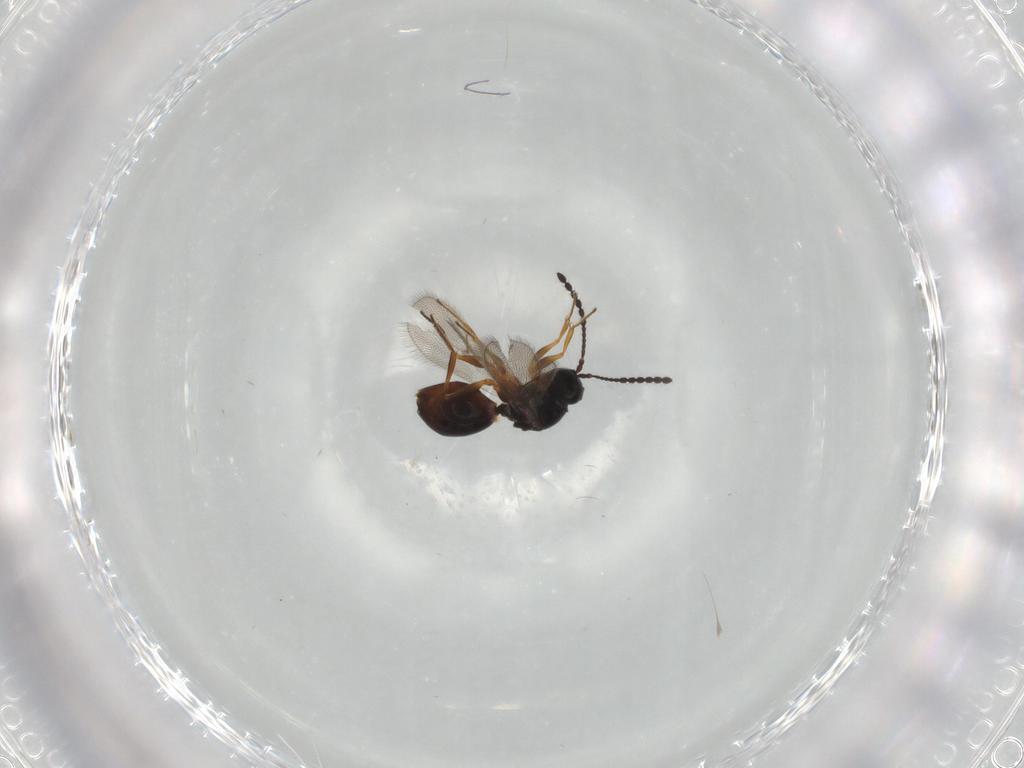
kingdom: Animalia
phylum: Arthropoda
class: Insecta
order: Hymenoptera
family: Figitidae
